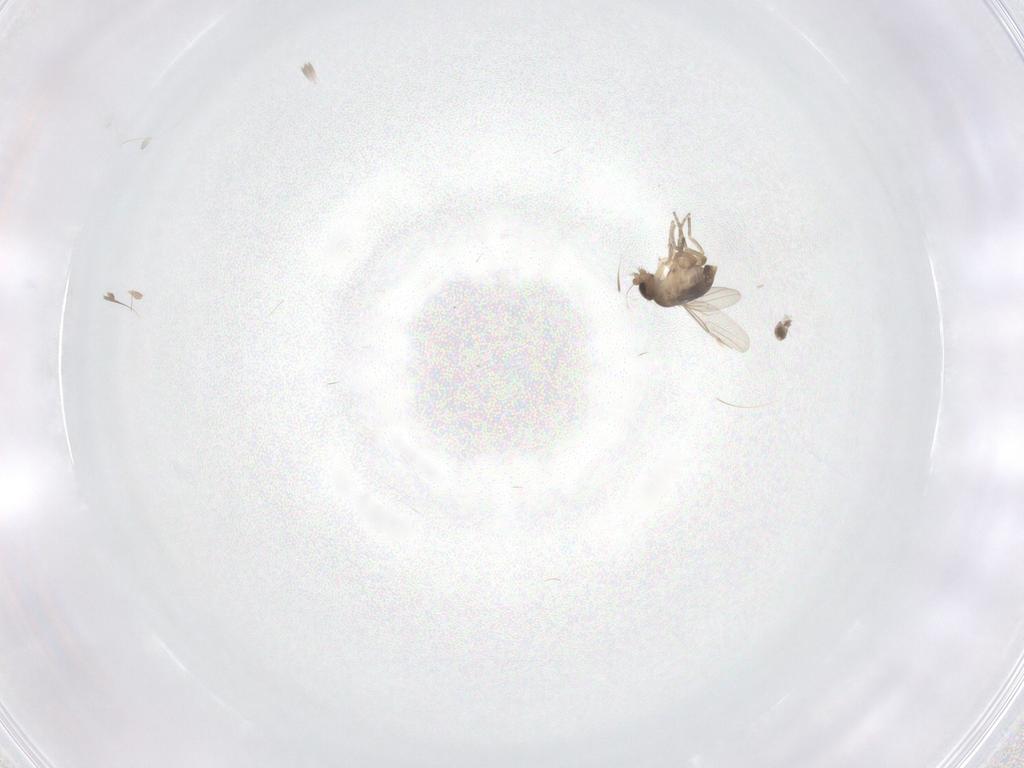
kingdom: Animalia
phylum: Arthropoda
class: Insecta
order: Diptera
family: Phoridae
